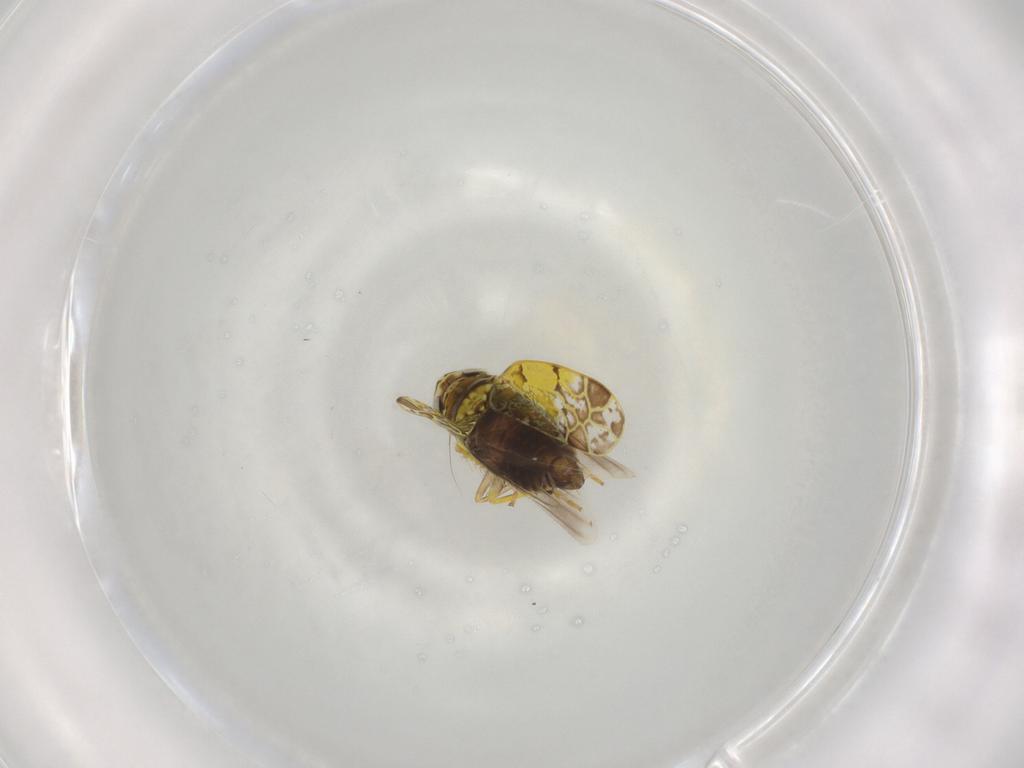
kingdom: Animalia
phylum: Arthropoda
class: Insecta
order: Hemiptera
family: Cicadellidae
